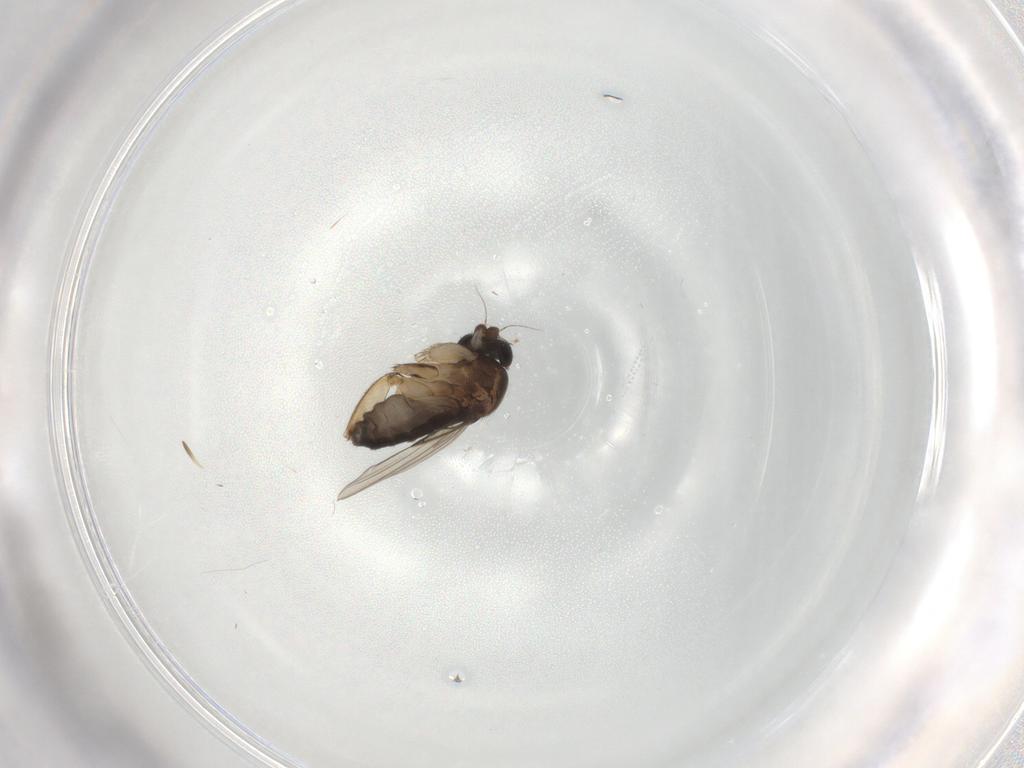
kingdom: Animalia
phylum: Arthropoda
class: Insecta
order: Diptera
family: Phoridae
